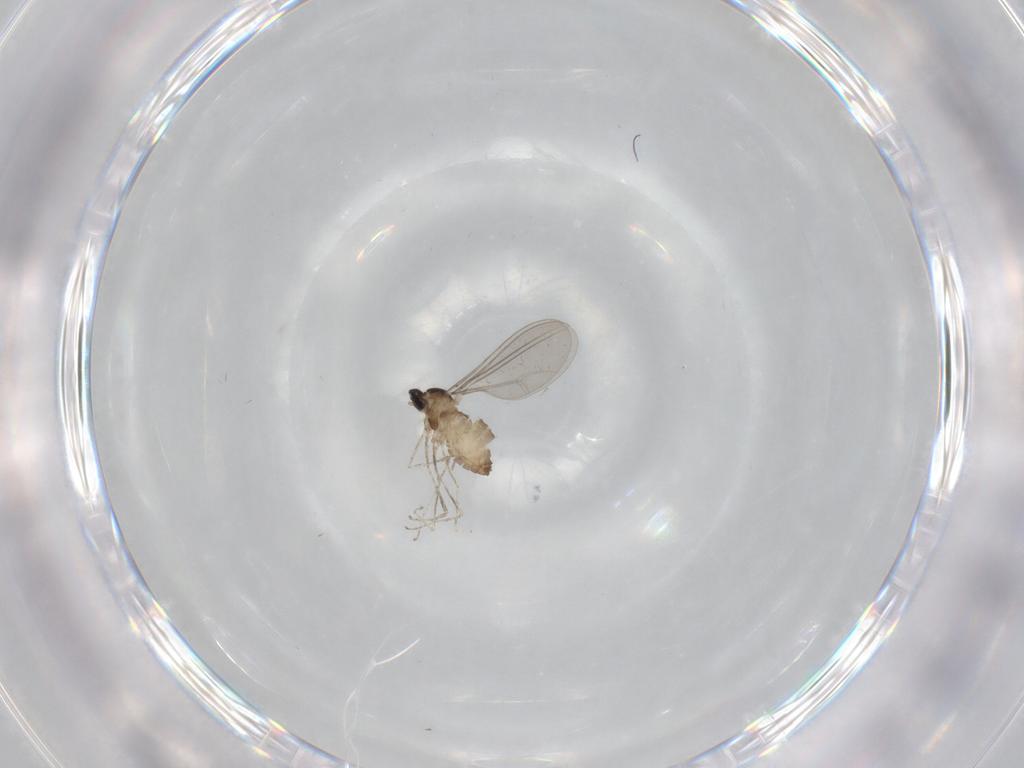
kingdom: Animalia
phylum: Arthropoda
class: Insecta
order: Diptera
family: Cecidomyiidae
